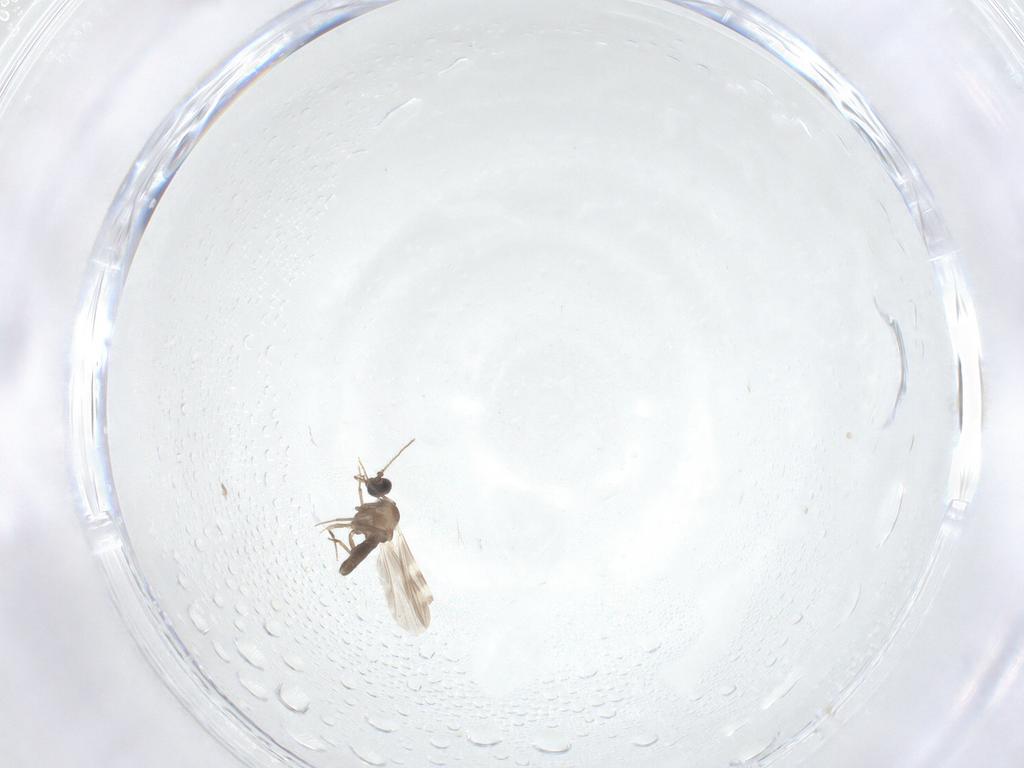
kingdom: Animalia
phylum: Arthropoda
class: Insecta
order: Diptera
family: Ceratopogonidae
